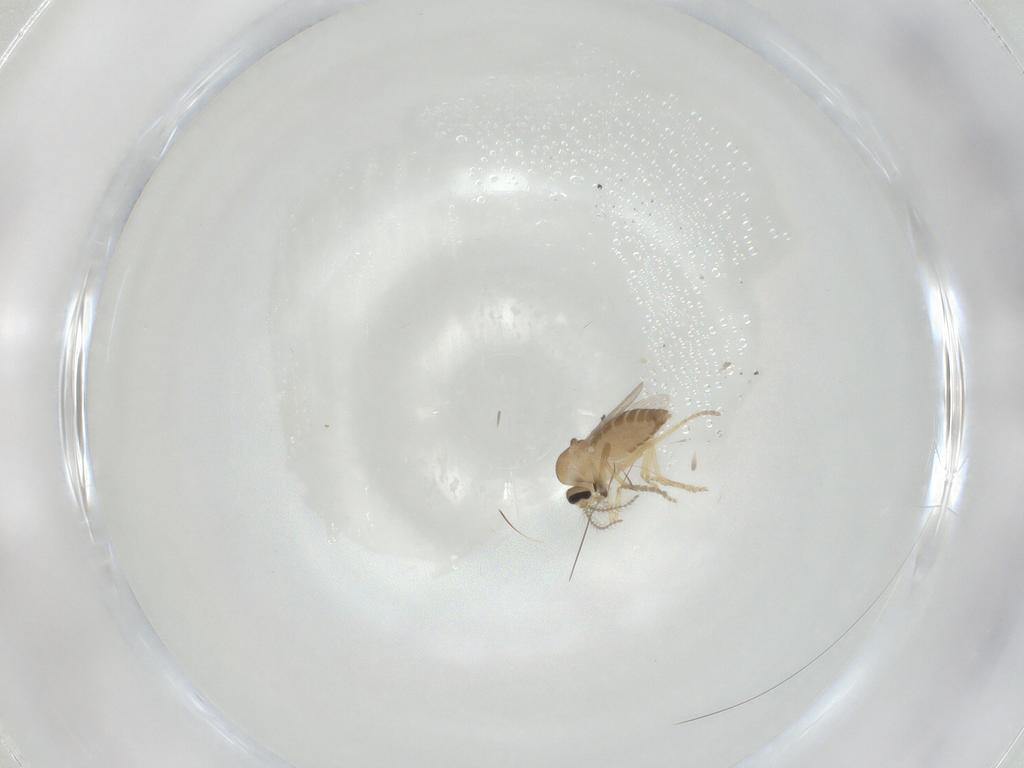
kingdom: Animalia
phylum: Arthropoda
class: Insecta
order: Diptera
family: Ceratopogonidae
